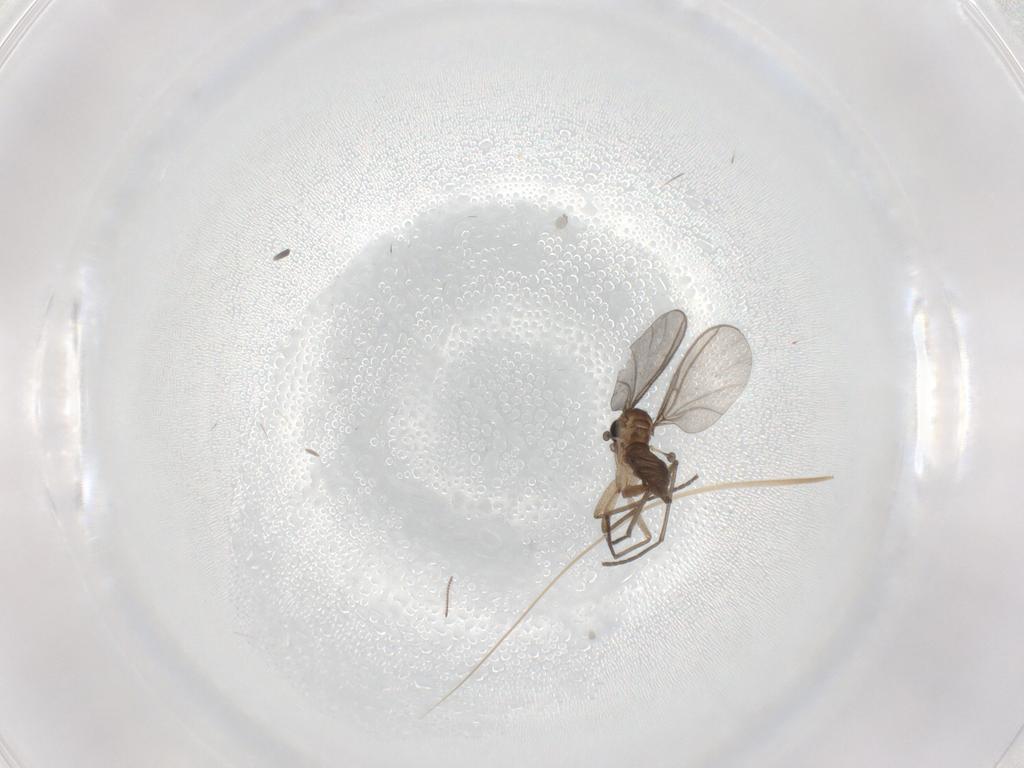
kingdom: Animalia
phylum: Arthropoda
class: Insecta
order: Diptera
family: Sciaridae
